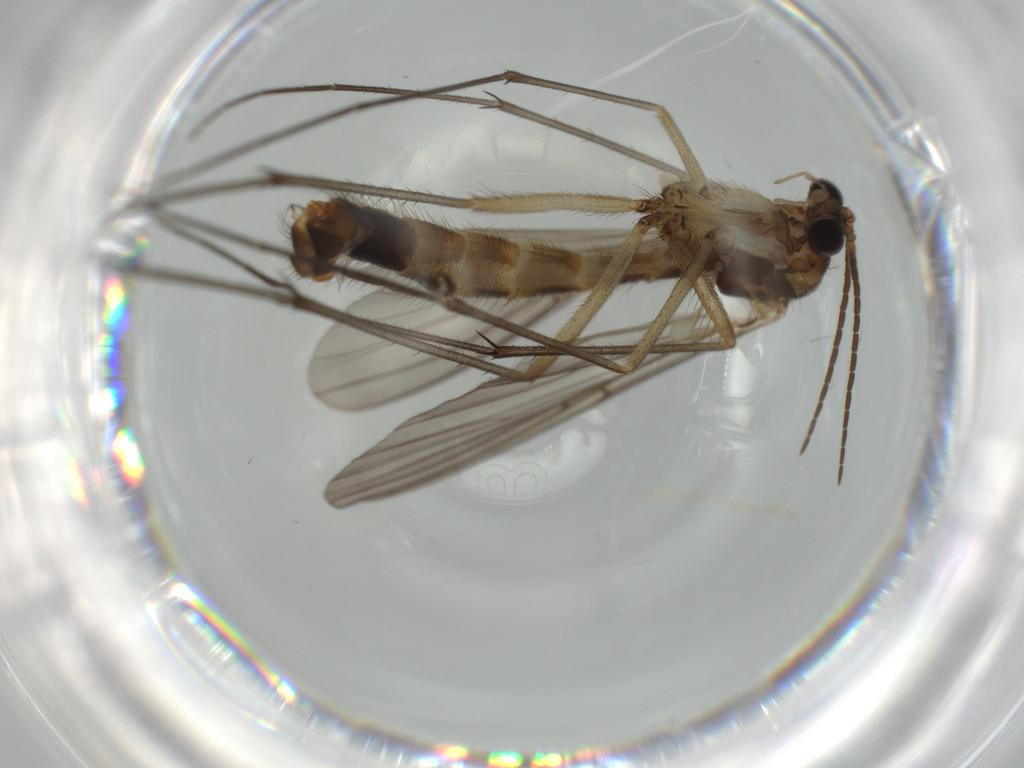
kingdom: Animalia
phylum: Arthropoda
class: Insecta
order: Diptera
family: Mycetophilidae
